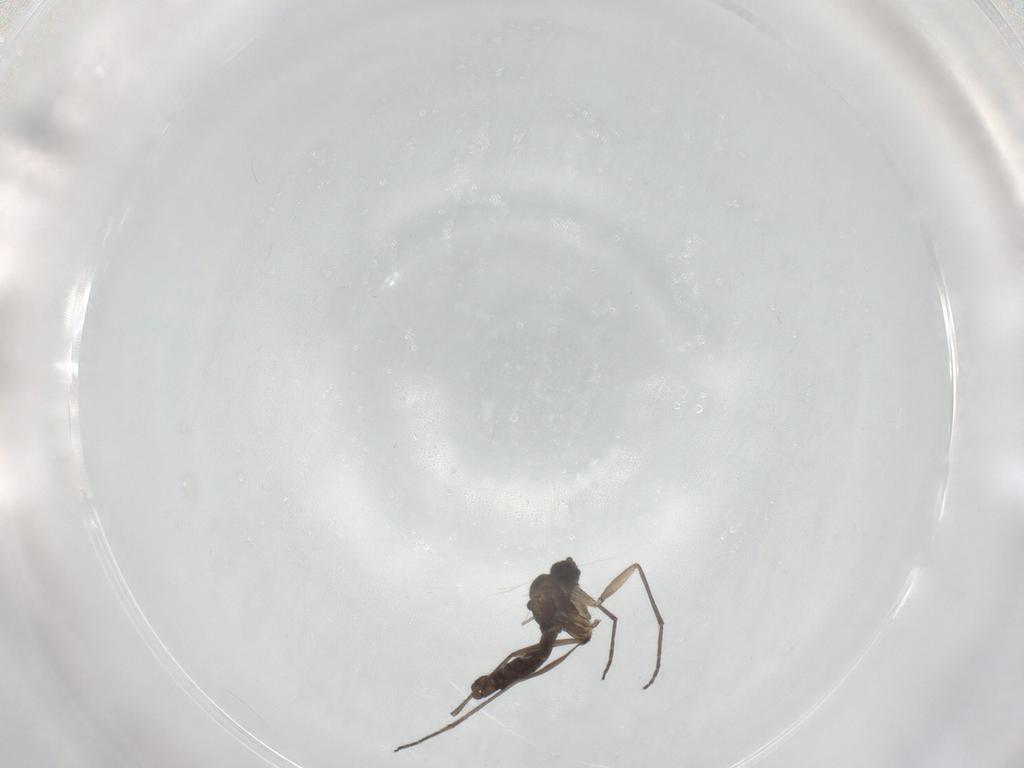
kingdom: Animalia
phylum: Arthropoda
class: Insecta
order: Diptera
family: Sciaridae
